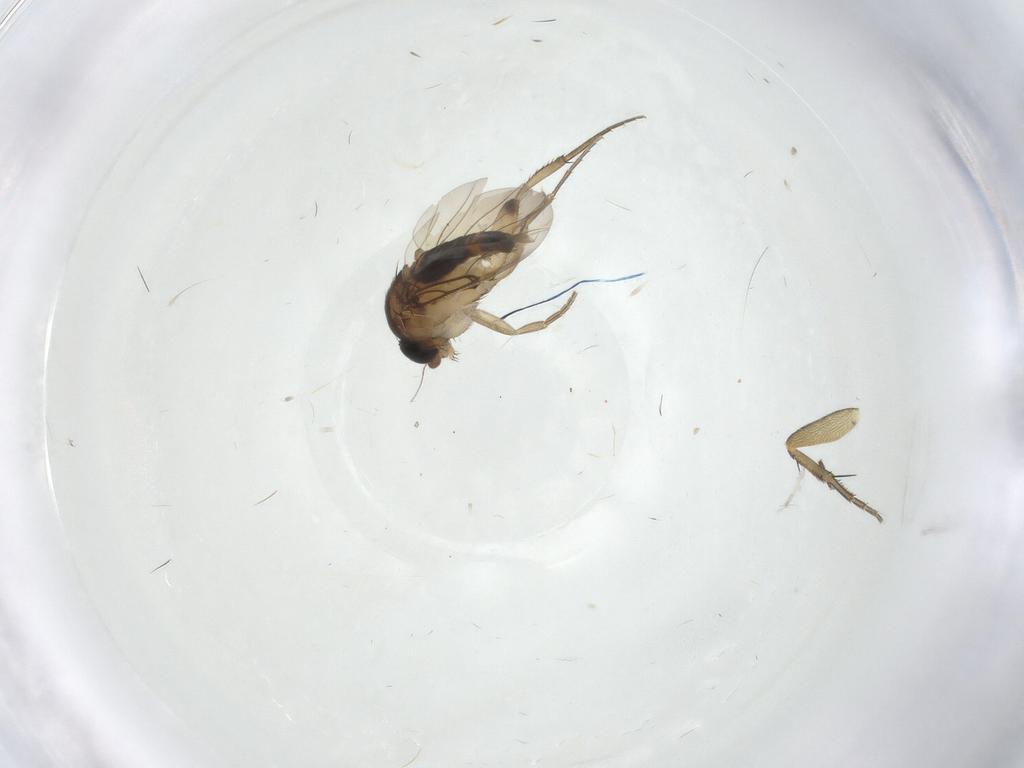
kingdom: Animalia
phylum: Arthropoda
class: Insecta
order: Diptera
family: Phoridae
